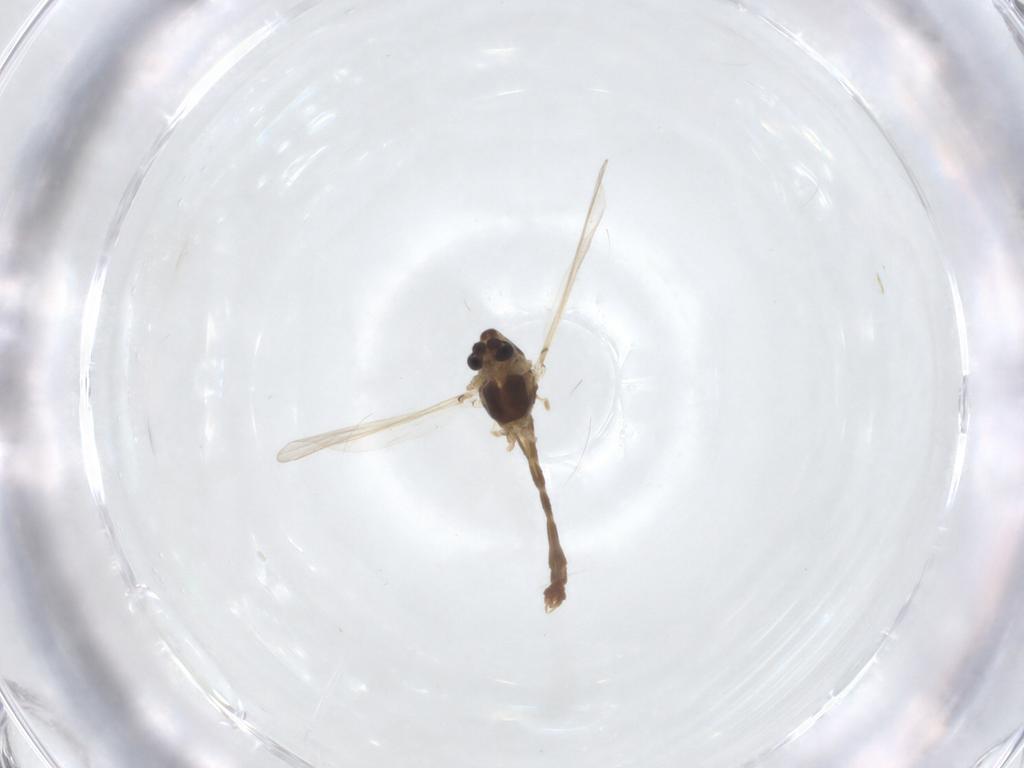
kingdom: Animalia
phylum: Arthropoda
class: Insecta
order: Diptera
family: Chironomidae
